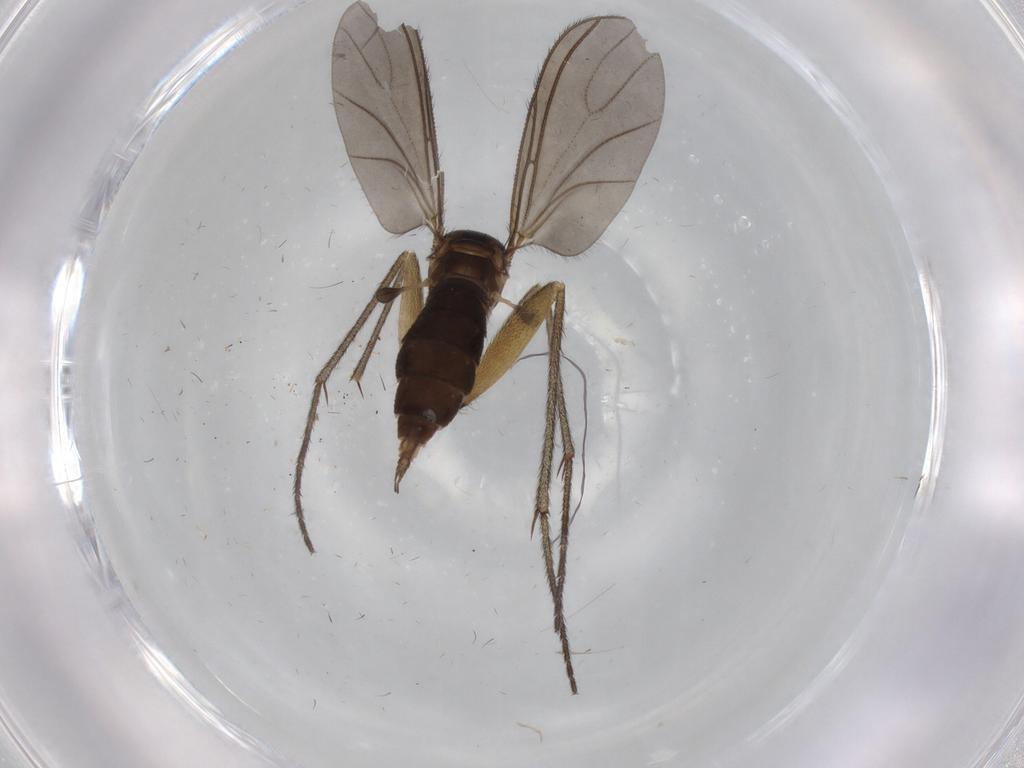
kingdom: Animalia
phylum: Arthropoda
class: Insecta
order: Diptera
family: Sciaridae
